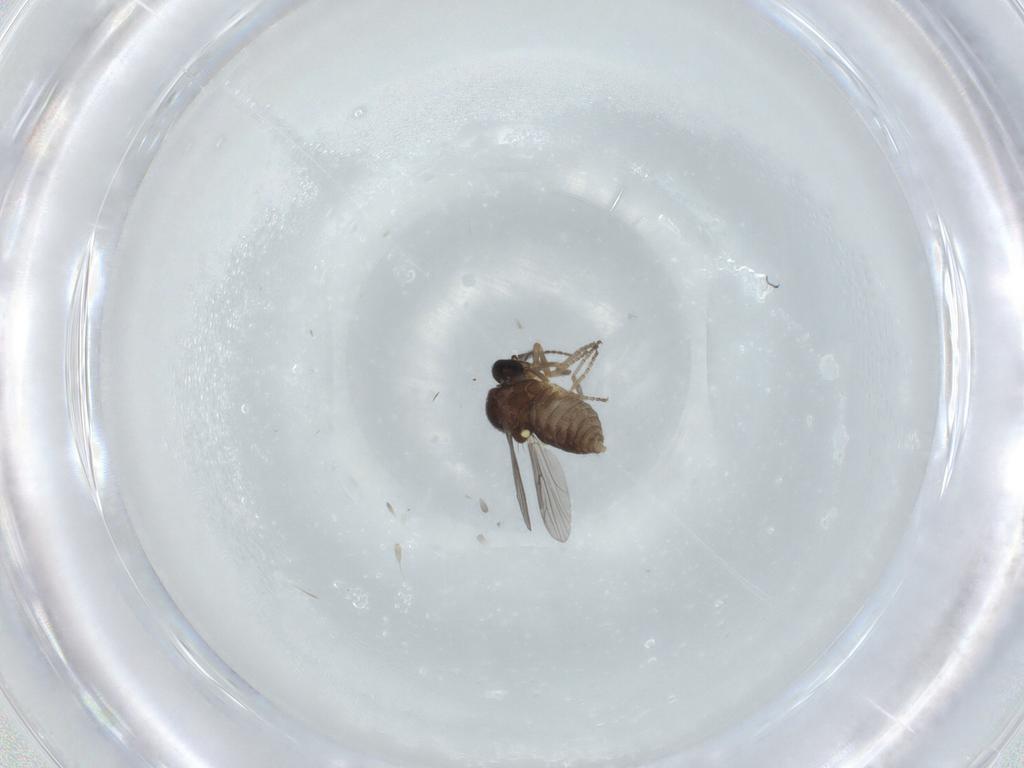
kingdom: Animalia
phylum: Arthropoda
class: Insecta
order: Diptera
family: Ceratopogonidae
